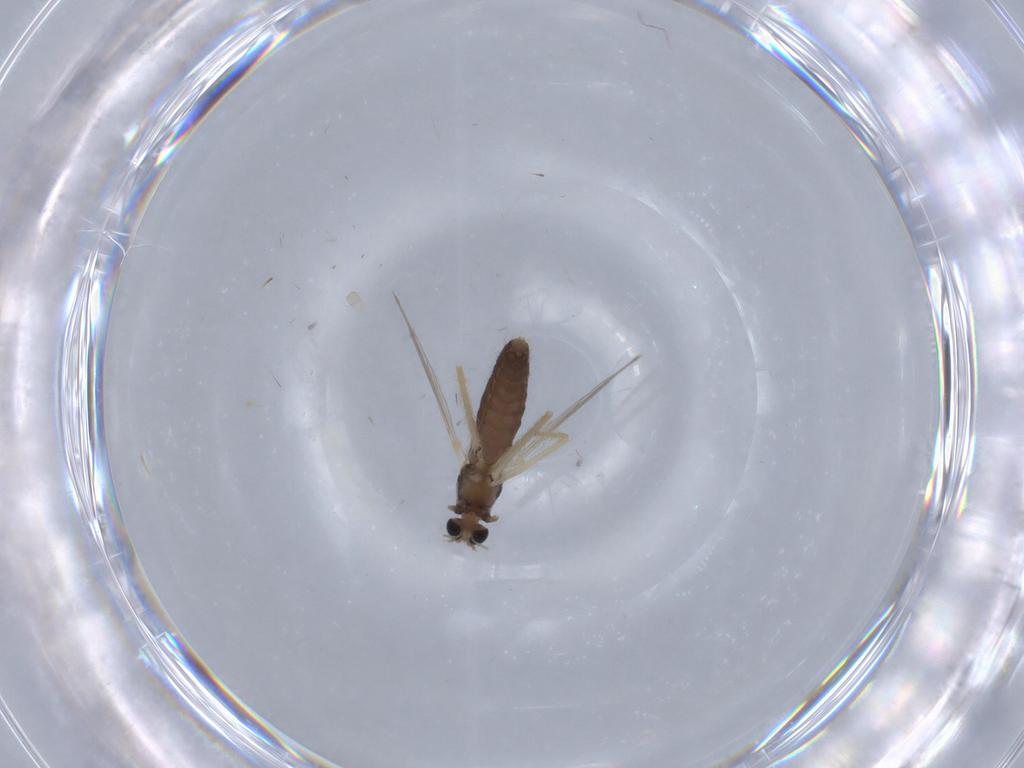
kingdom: Animalia
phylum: Arthropoda
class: Insecta
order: Diptera
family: Chironomidae
